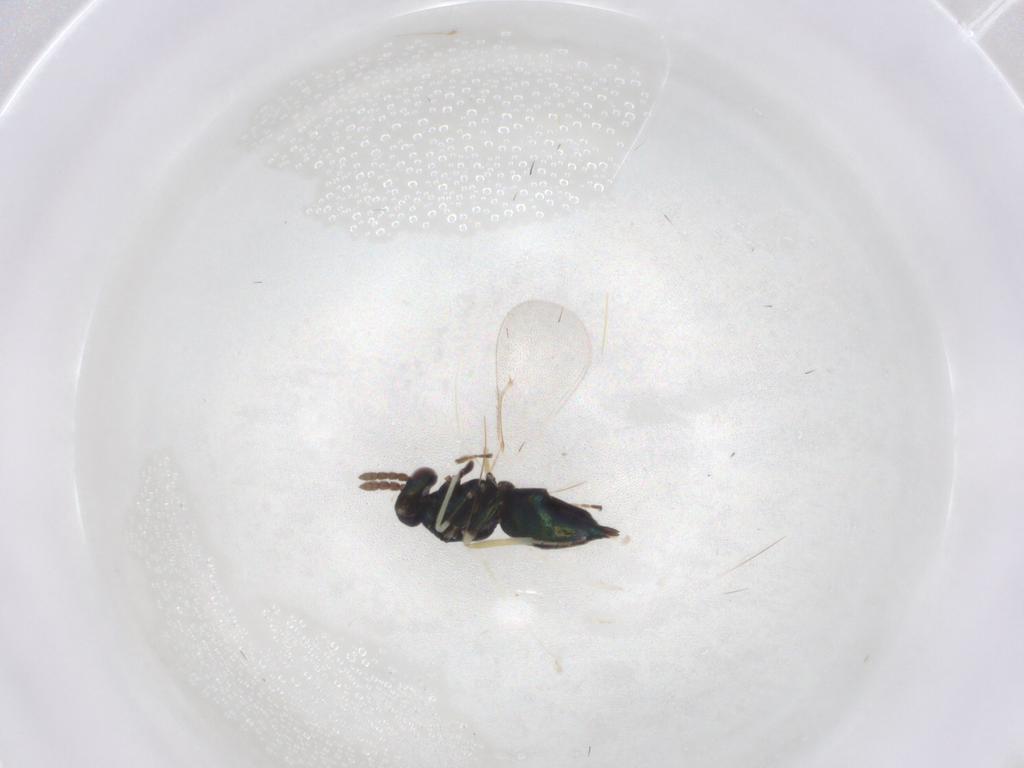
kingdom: Animalia
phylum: Arthropoda
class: Insecta
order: Hymenoptera
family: Eulophidae
